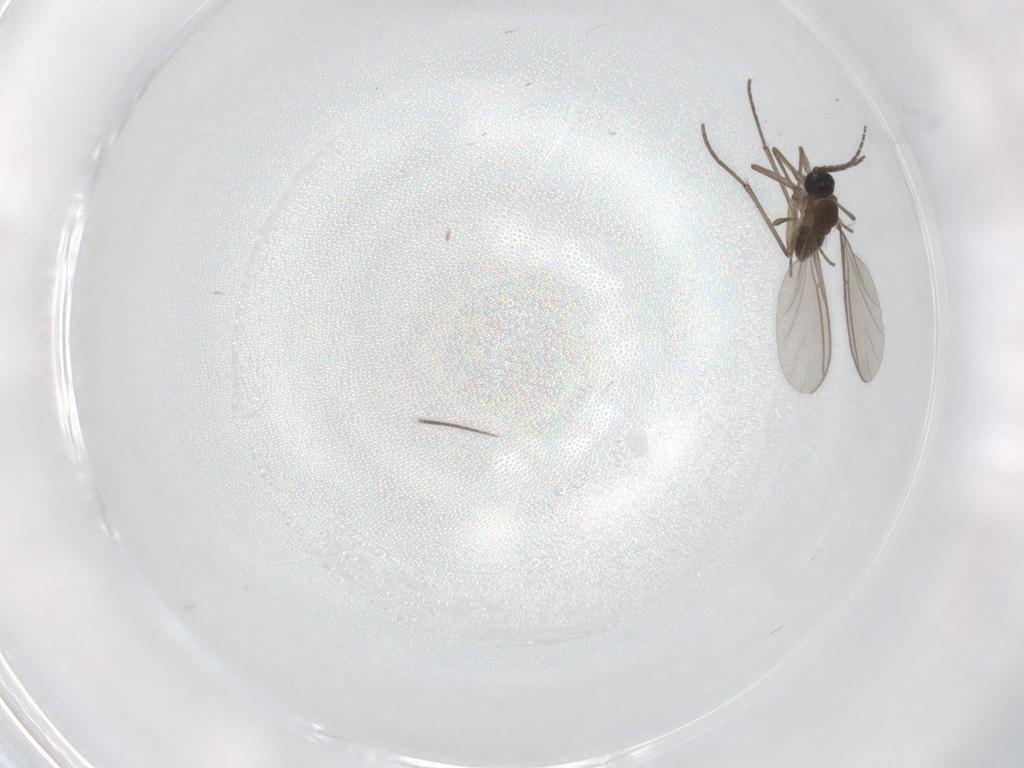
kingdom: Animalia
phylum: Arthropoda
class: Insecta
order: Diptera
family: Sciaridae
